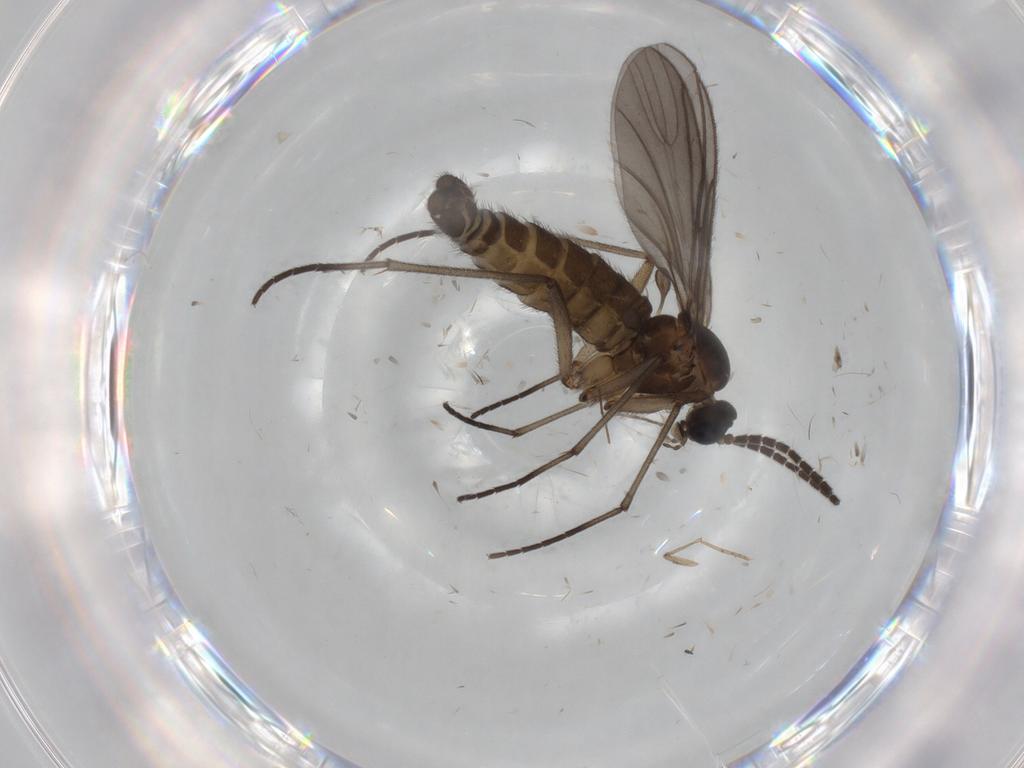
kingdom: Animalia
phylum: Arthropoda
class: Insecta
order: Diptera
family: Sciaridae
